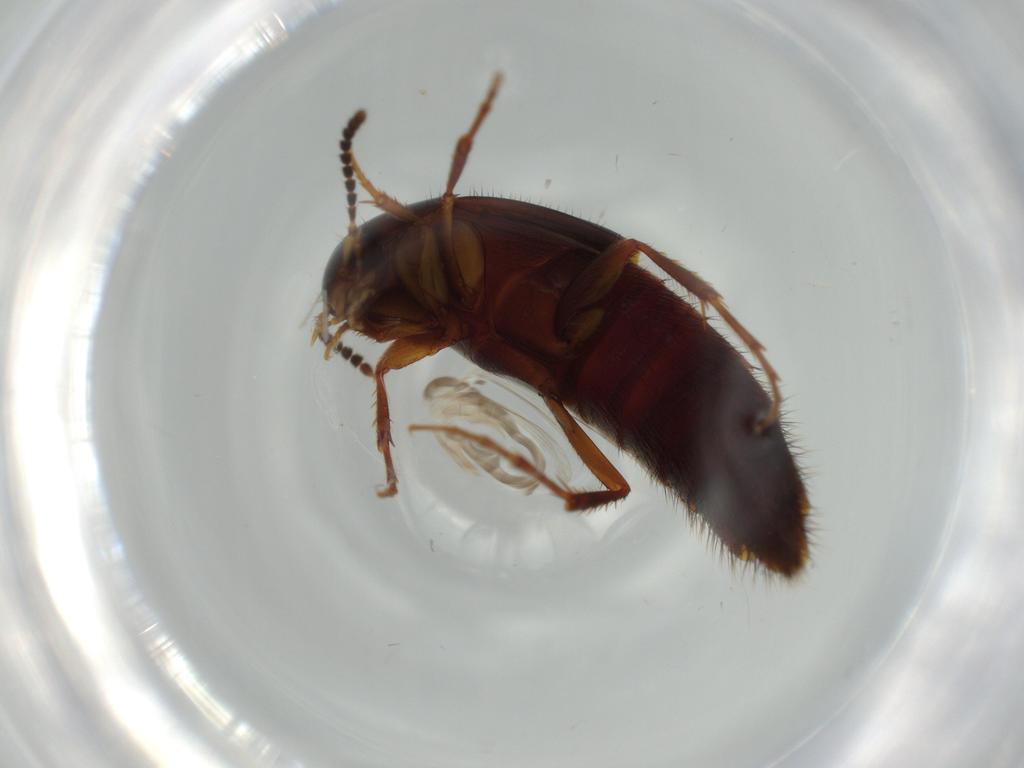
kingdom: Animalia
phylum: Arthropoda
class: Insecta
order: Coleoptera
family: Staphylinidae
